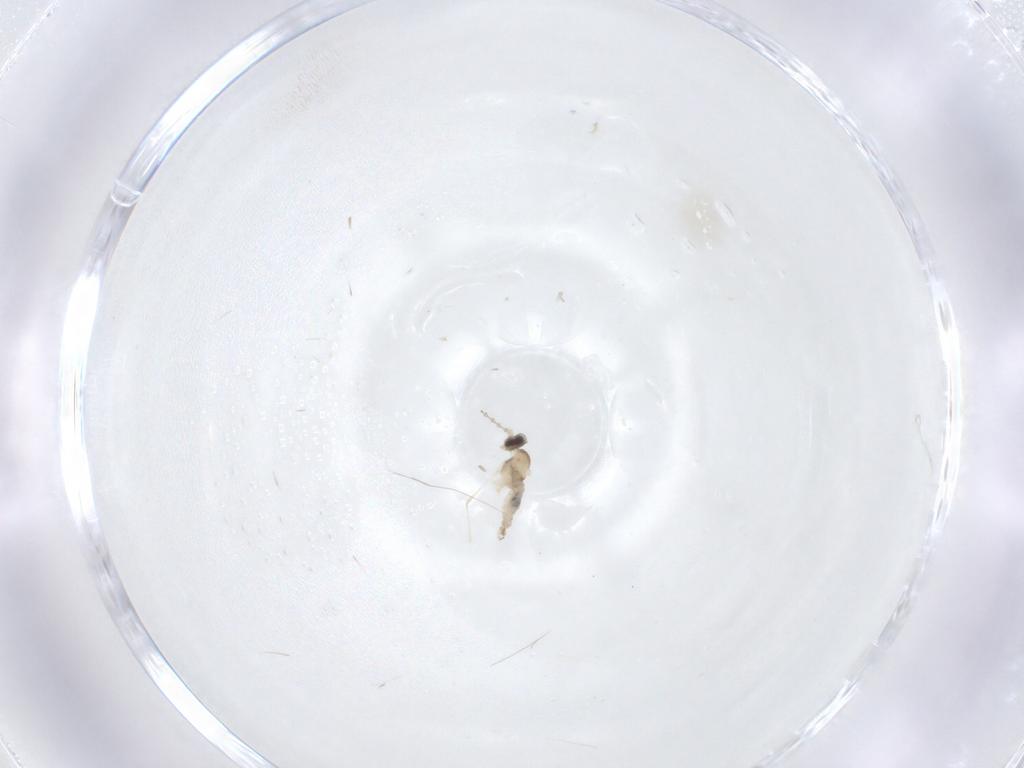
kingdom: Animalia
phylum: Arthropoda
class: Insecta
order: Diptera
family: Cecidomyiidae
